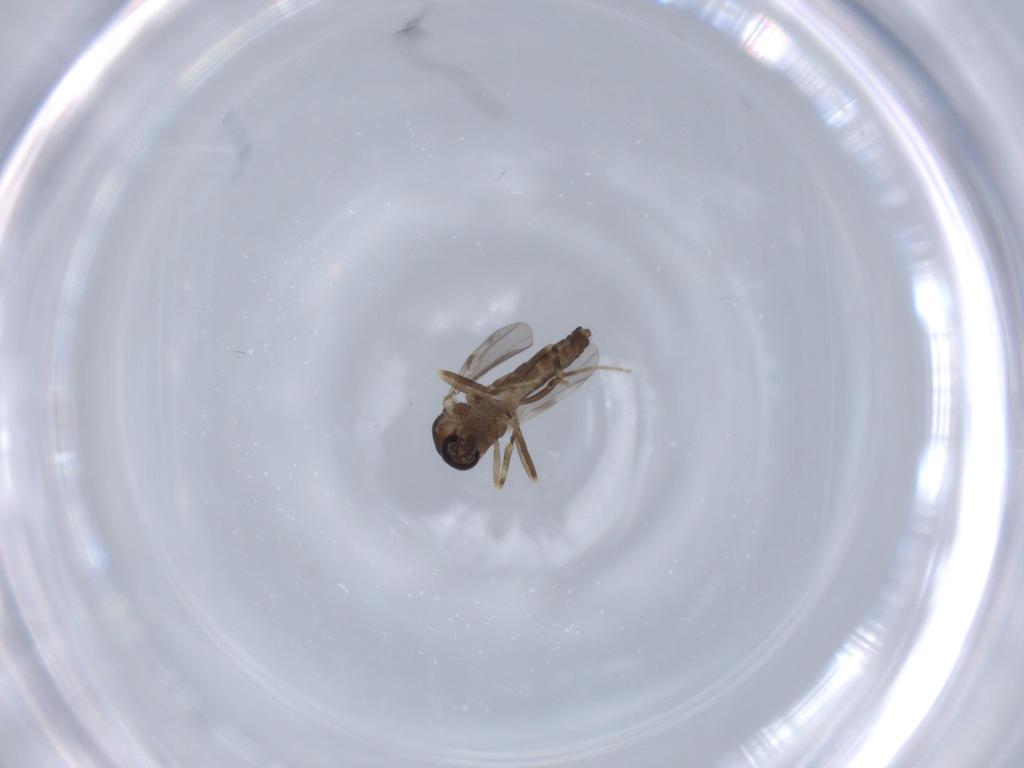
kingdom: Animalia
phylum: Arthropoda
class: Insecta
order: Diptera
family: Ceratopogonidae
